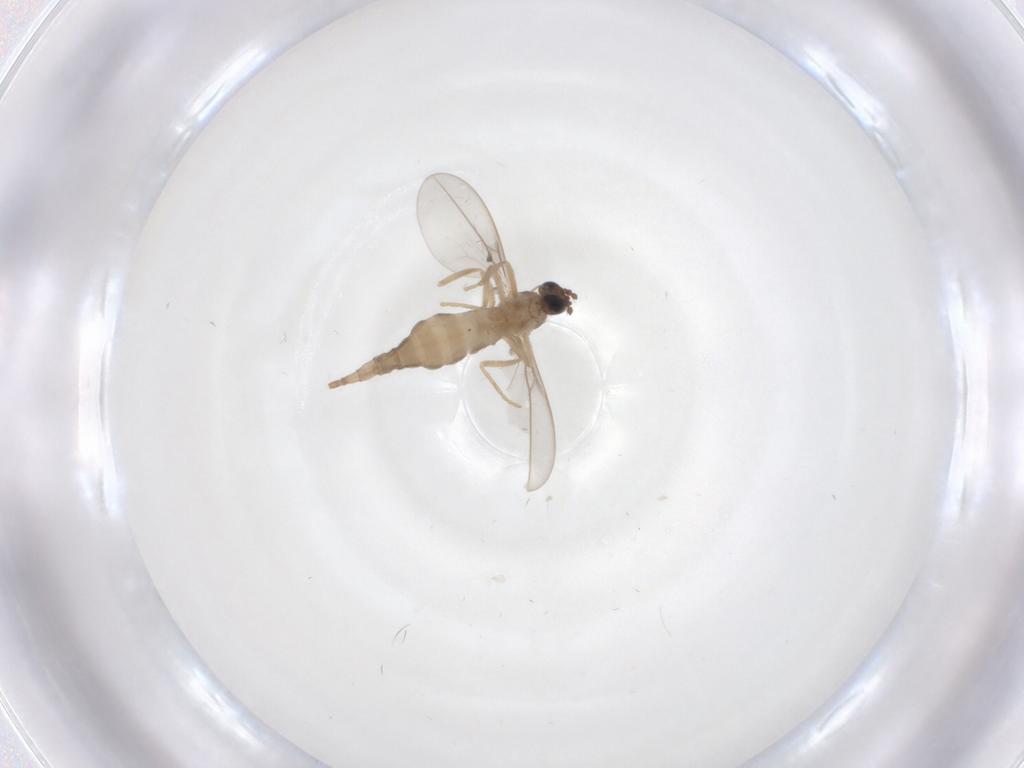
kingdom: Animalia
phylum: Arthropoda
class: Insecta
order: Diptera
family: Cecidomyiidae
